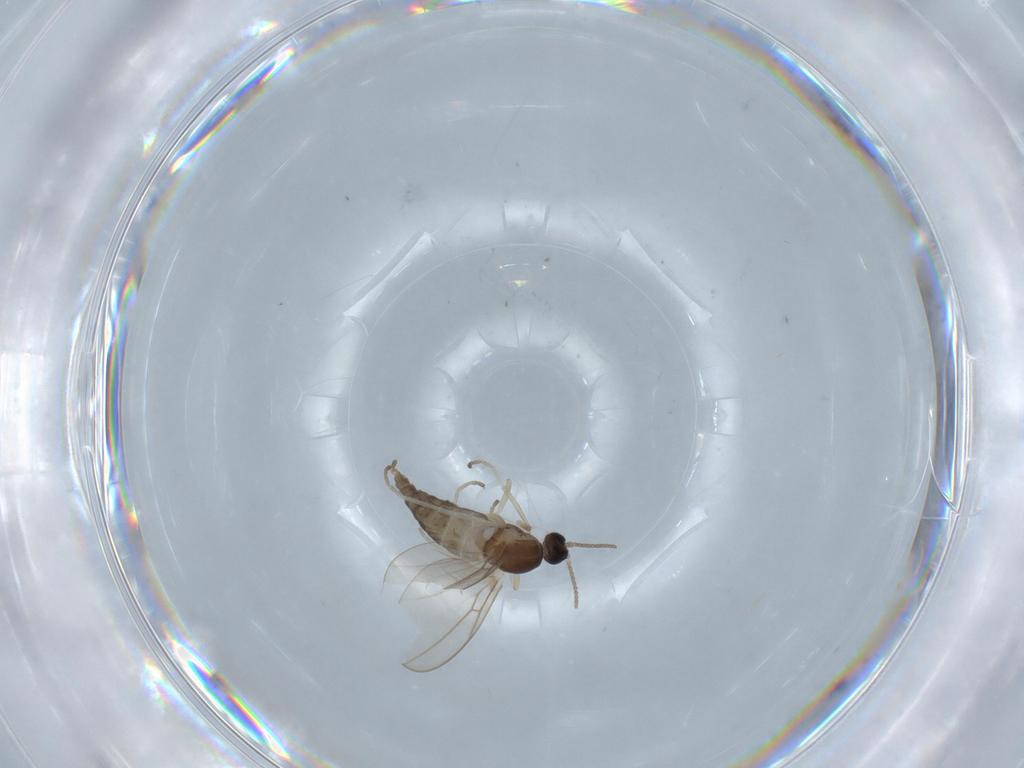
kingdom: Animalia
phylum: Arthropoda
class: Insecta
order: Diptera
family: Cecidomyiidae
